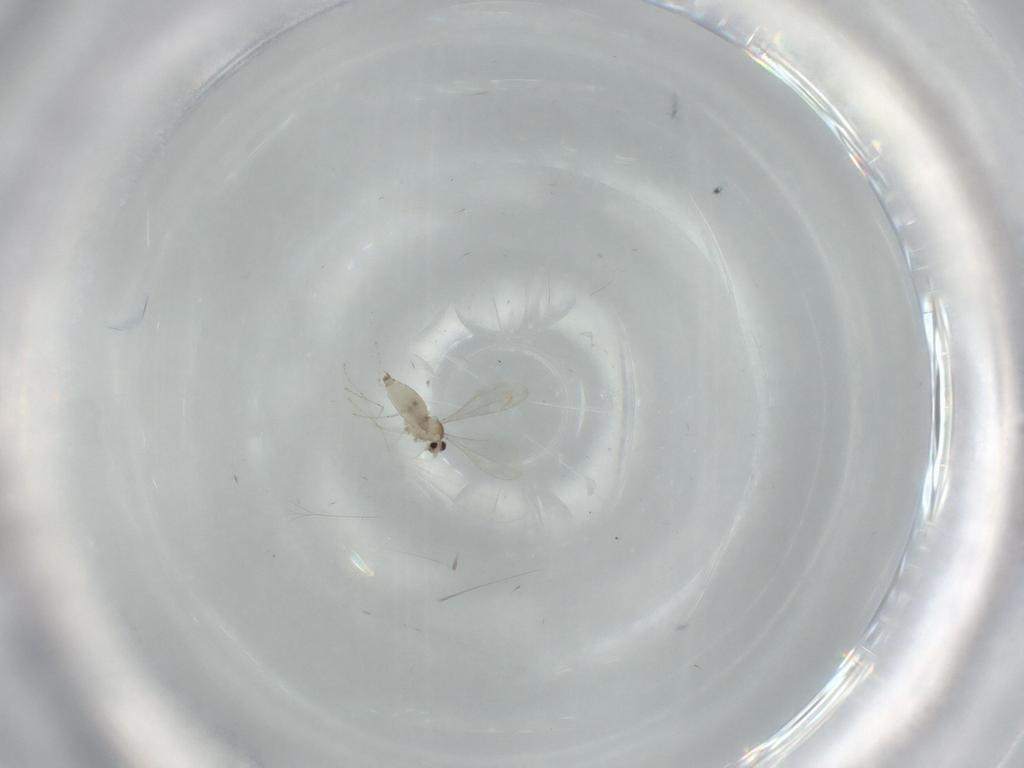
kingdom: Animalia
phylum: Arthropoda
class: Insecta
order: Diptera
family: Cecidomyiidae
